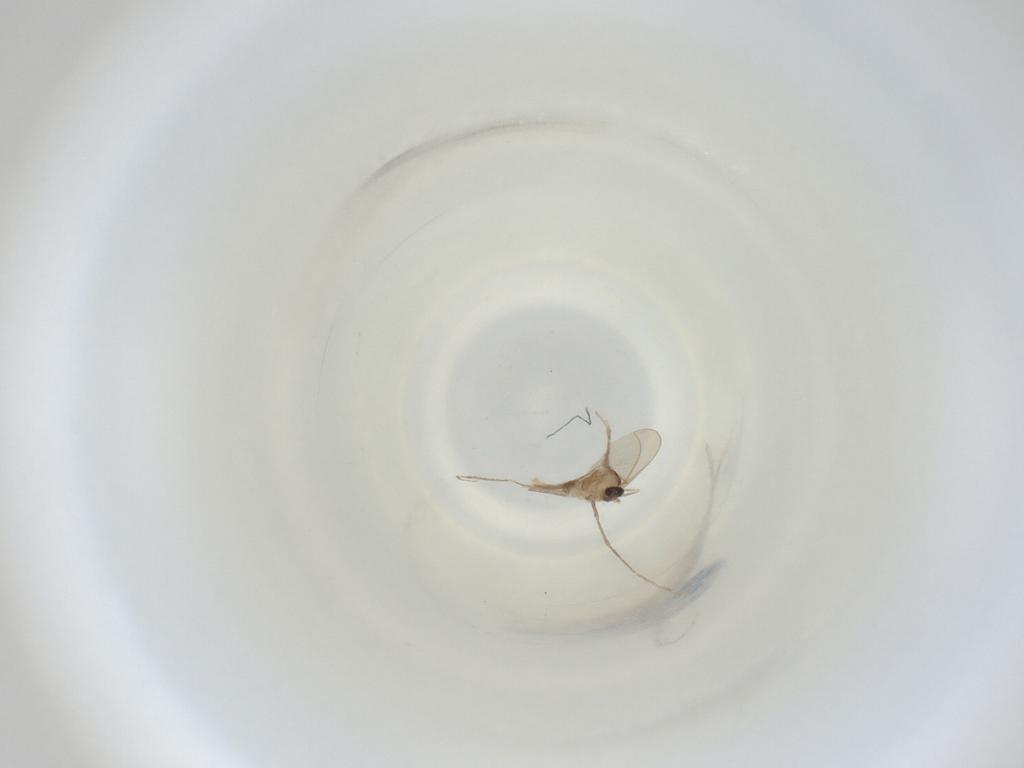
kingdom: Animalia
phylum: Arthropoda
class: Insecta
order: Diptera
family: Cecidomyiidae
